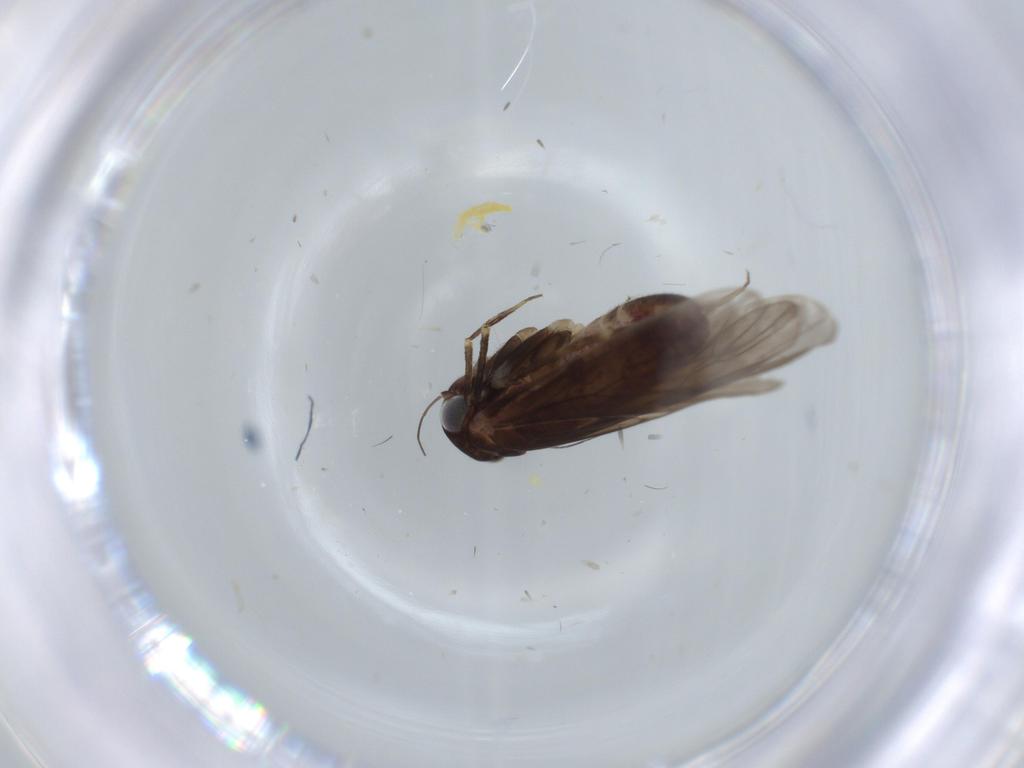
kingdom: Animalia
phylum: Arthropoda
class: Insecta
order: Psocodea
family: Amphientomidae
